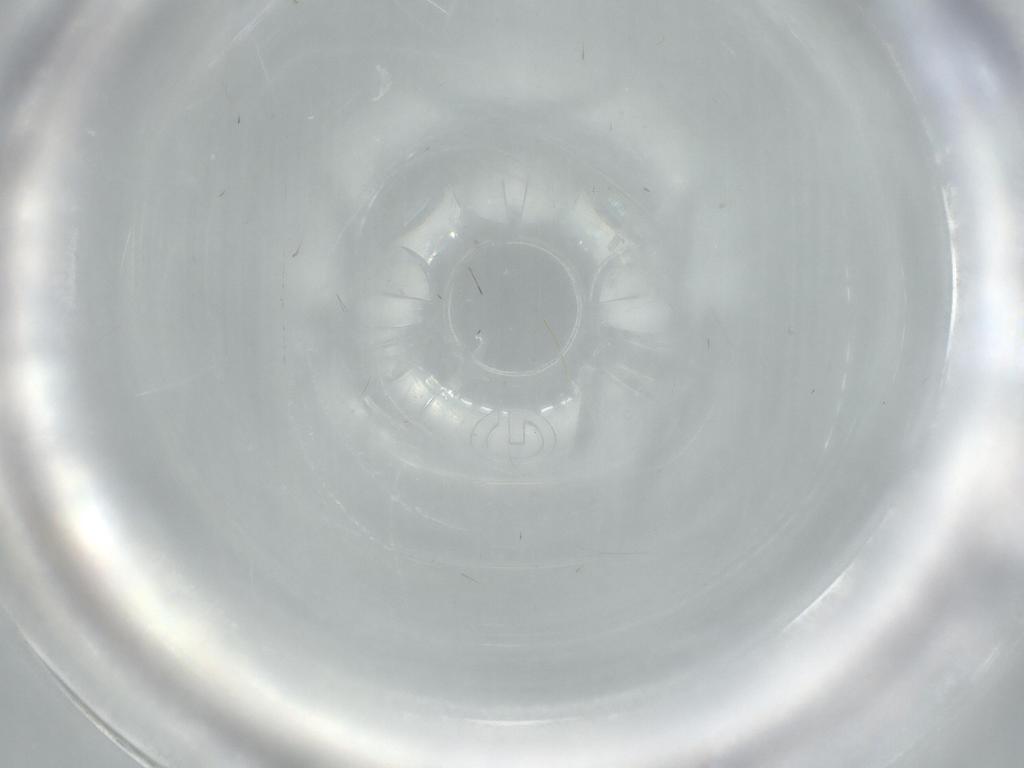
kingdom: Animalia
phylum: Arthropoda
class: Insecta
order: Diptera
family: Cecidomyiidae
